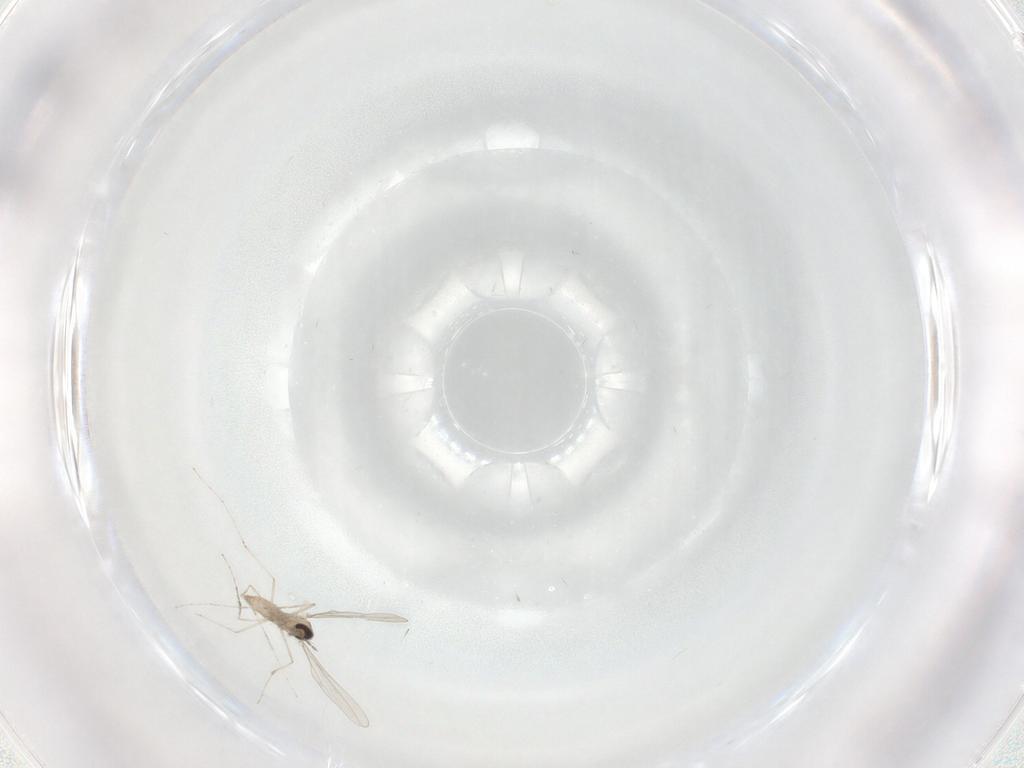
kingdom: Animalia
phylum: Arthropoda
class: Insecta
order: Diptera
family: Cecidomyiidae
